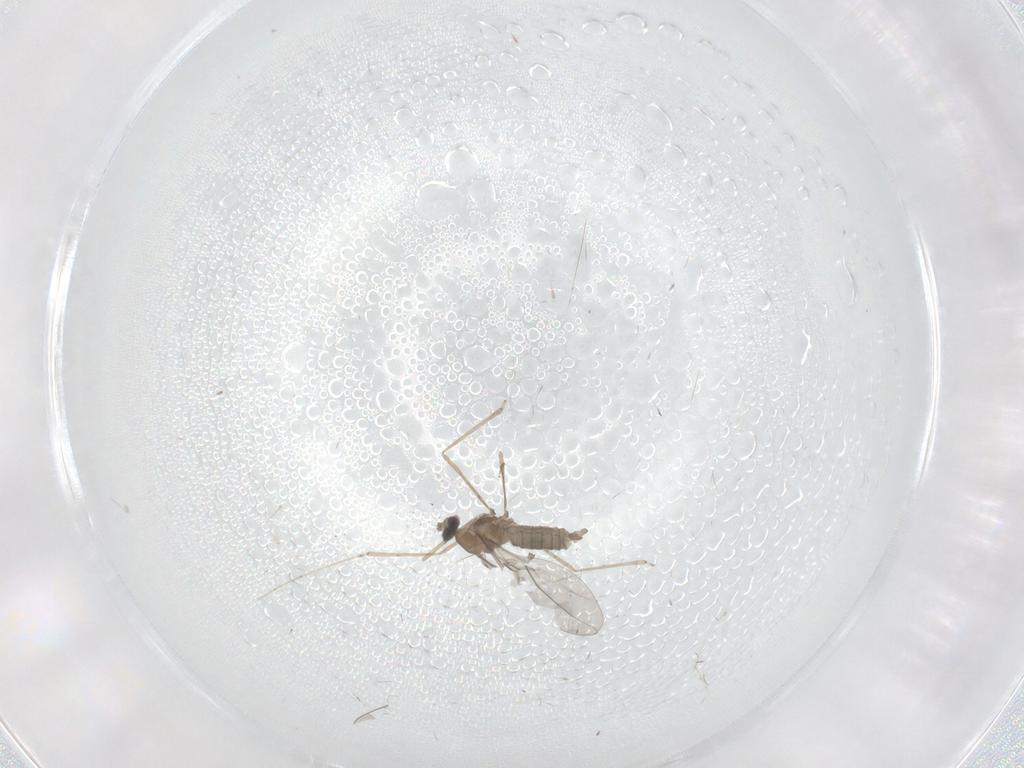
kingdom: Animalia
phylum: Arthropoda
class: Insecta
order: Diptera
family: Cecidomyiidae
